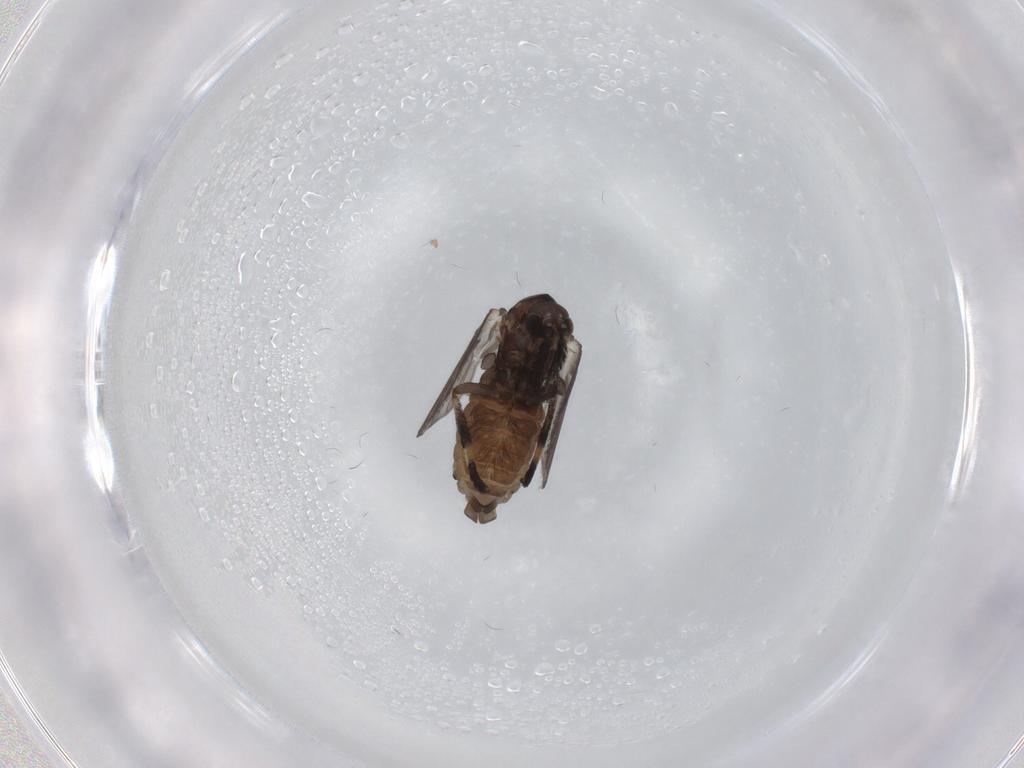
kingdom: Animalia
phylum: Arthropoda
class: Insecta
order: Diptera
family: Psychodidae
